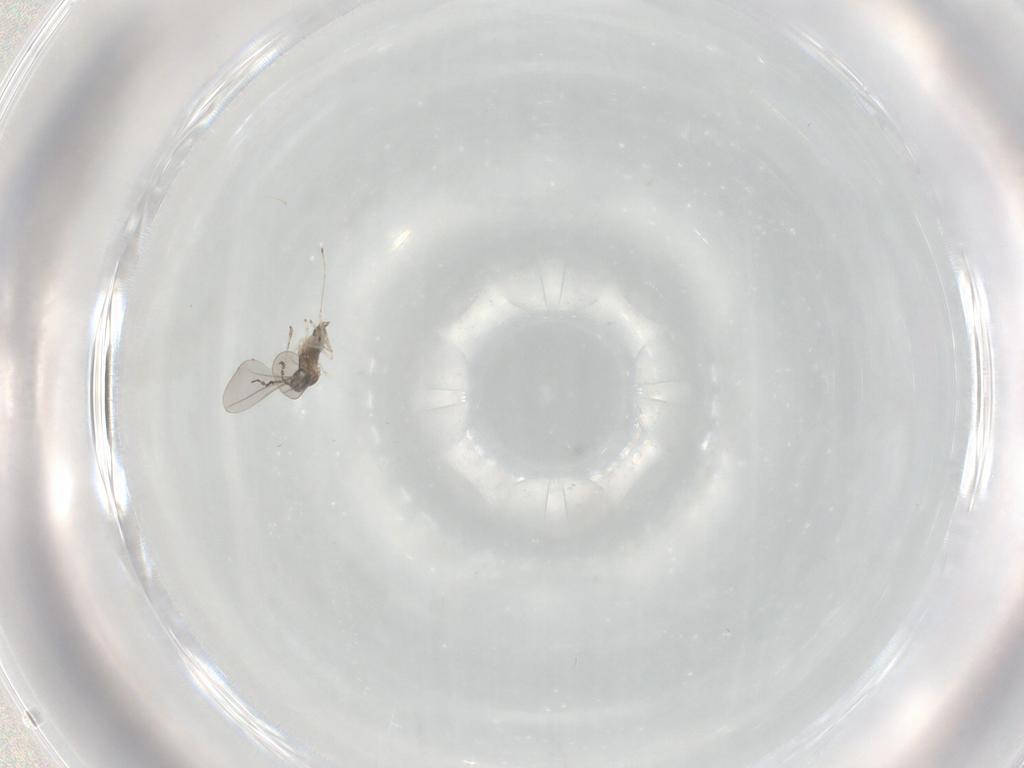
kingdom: Animalia
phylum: Arthropoda
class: Insecta
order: Diptera
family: Cecidomyiidae
